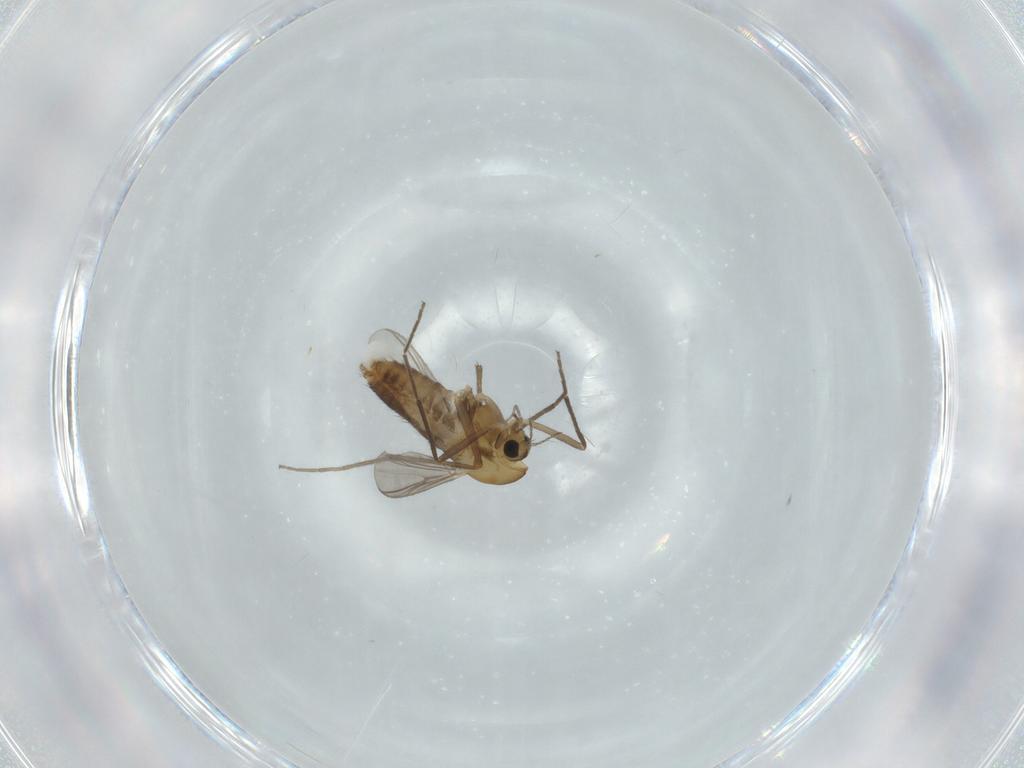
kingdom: Animalia
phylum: Arthropoda
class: Insecta
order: Diptera
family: Chironomidae
